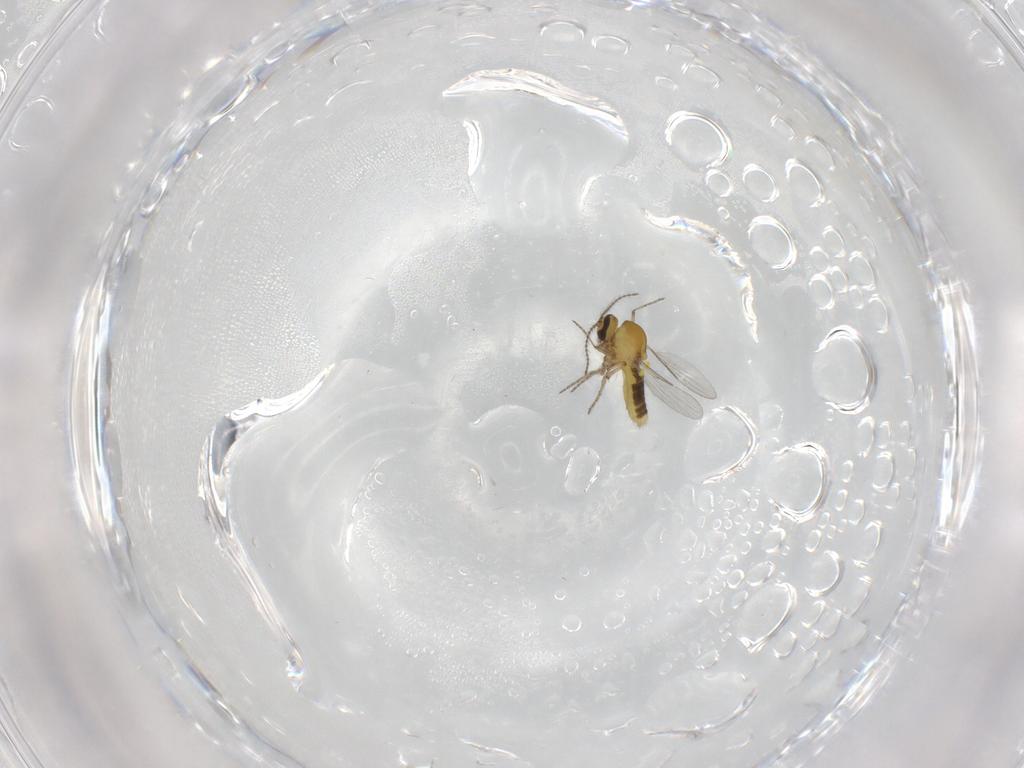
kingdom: Animalia
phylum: Arthropoda
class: Insecta
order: Diptera
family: Ceratopogonidae
